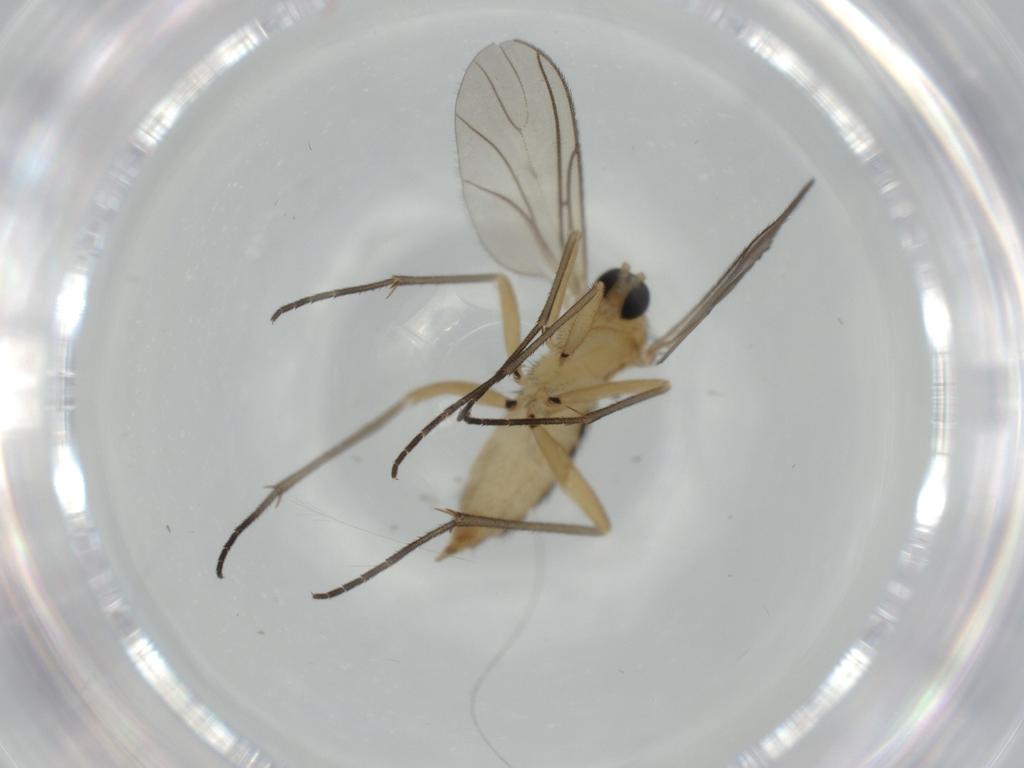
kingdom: Animalia
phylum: Arthropoda
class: Insecta
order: Diptera
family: Sciaridae
